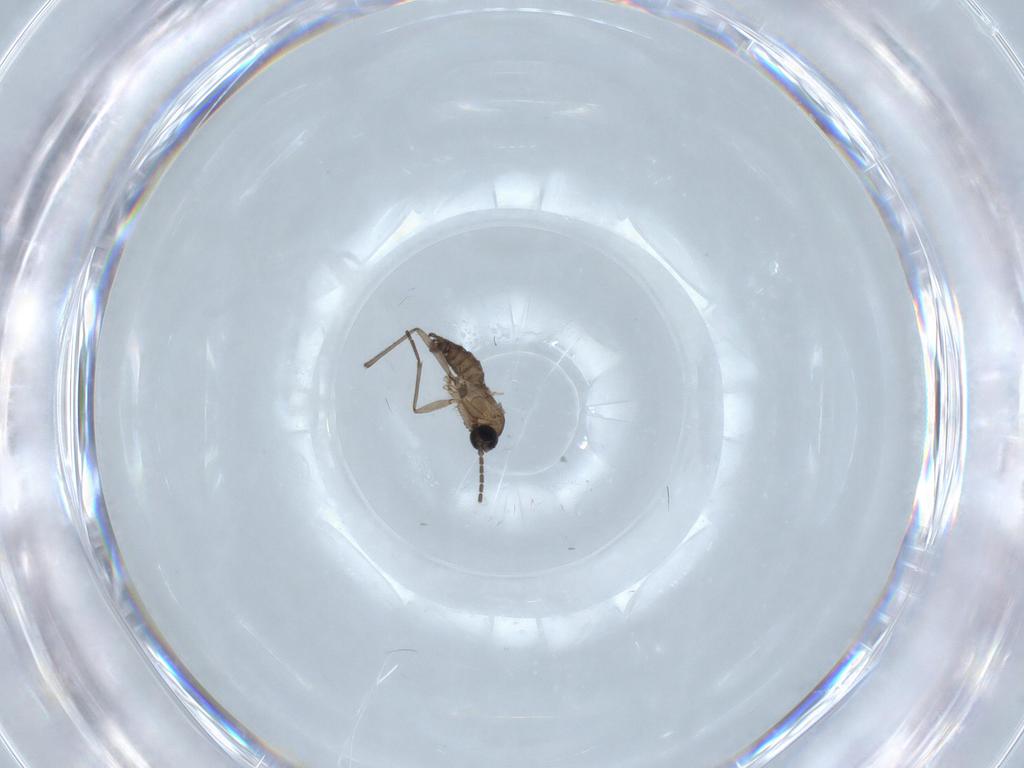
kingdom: Animalia
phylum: Arthropoda
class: Insecta
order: Diptera
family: Sciaridae
